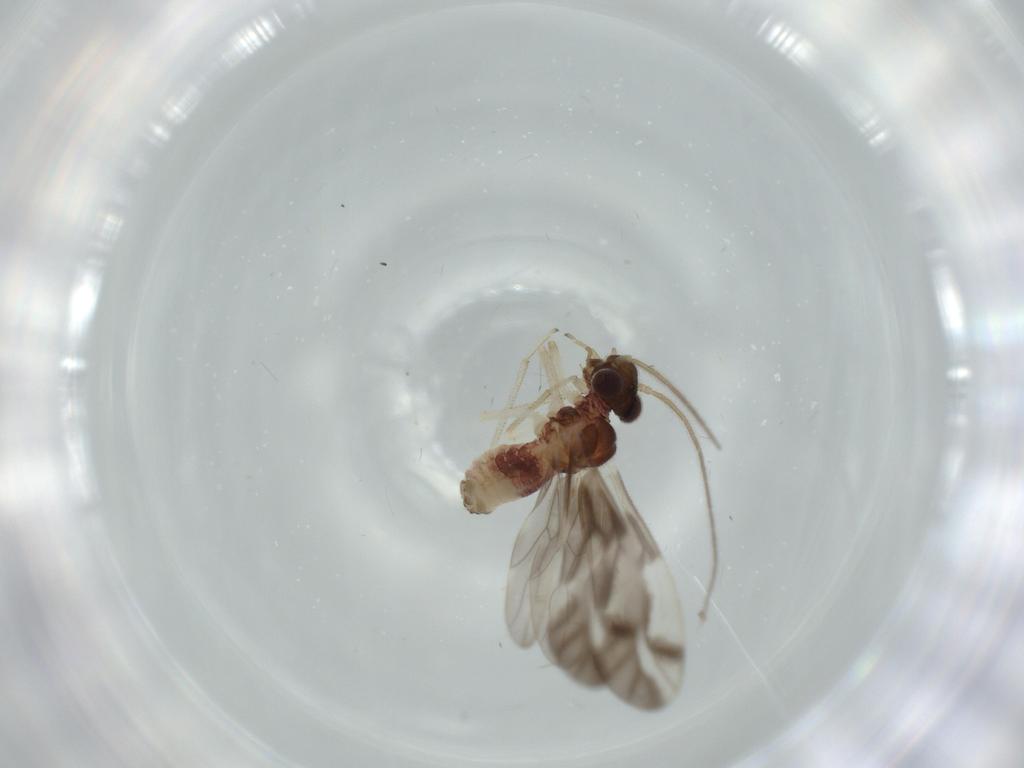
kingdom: Animalia
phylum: Arthropoda
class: Insecta
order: Psocodea
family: Caeciliusidae
